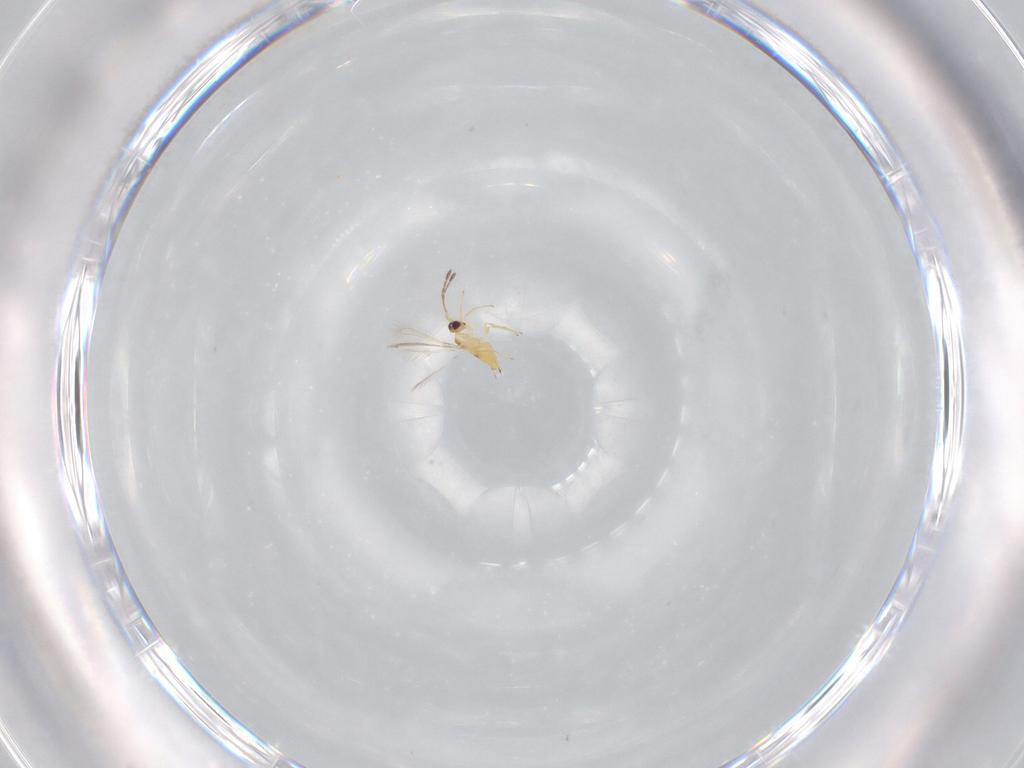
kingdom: Animalia
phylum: Arthropoda
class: Insecta
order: Hymenoptera
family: Mymaridae
